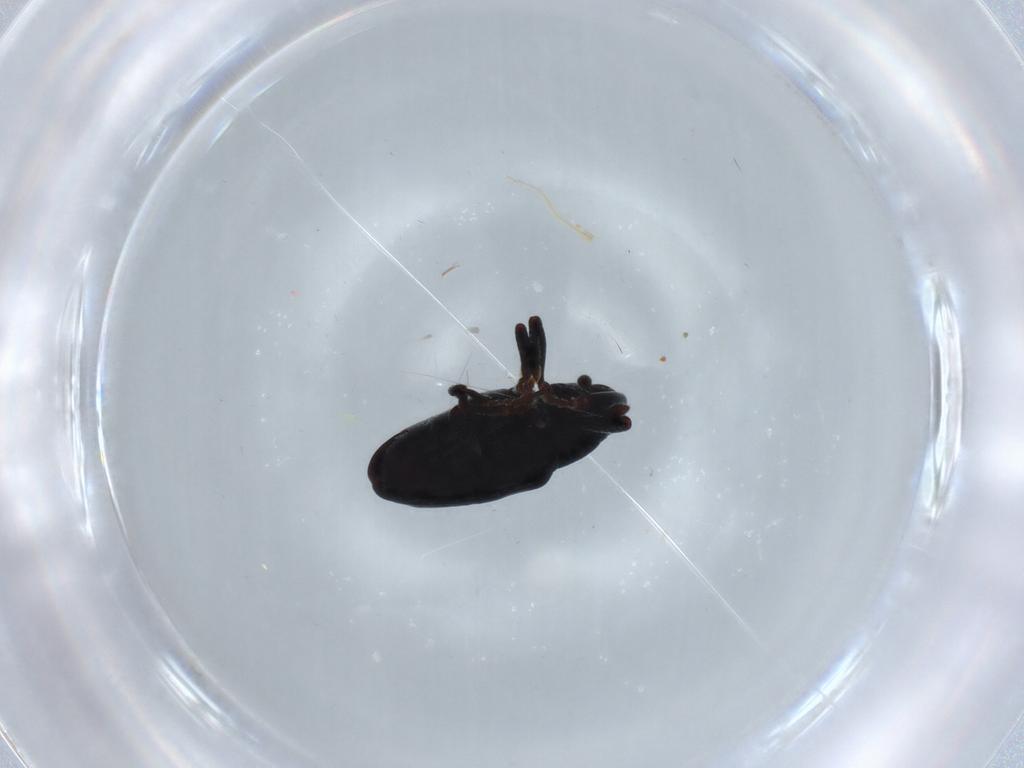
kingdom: Animalia
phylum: Arthropoda
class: Insecta
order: Coleoptera
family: Curculionidae
